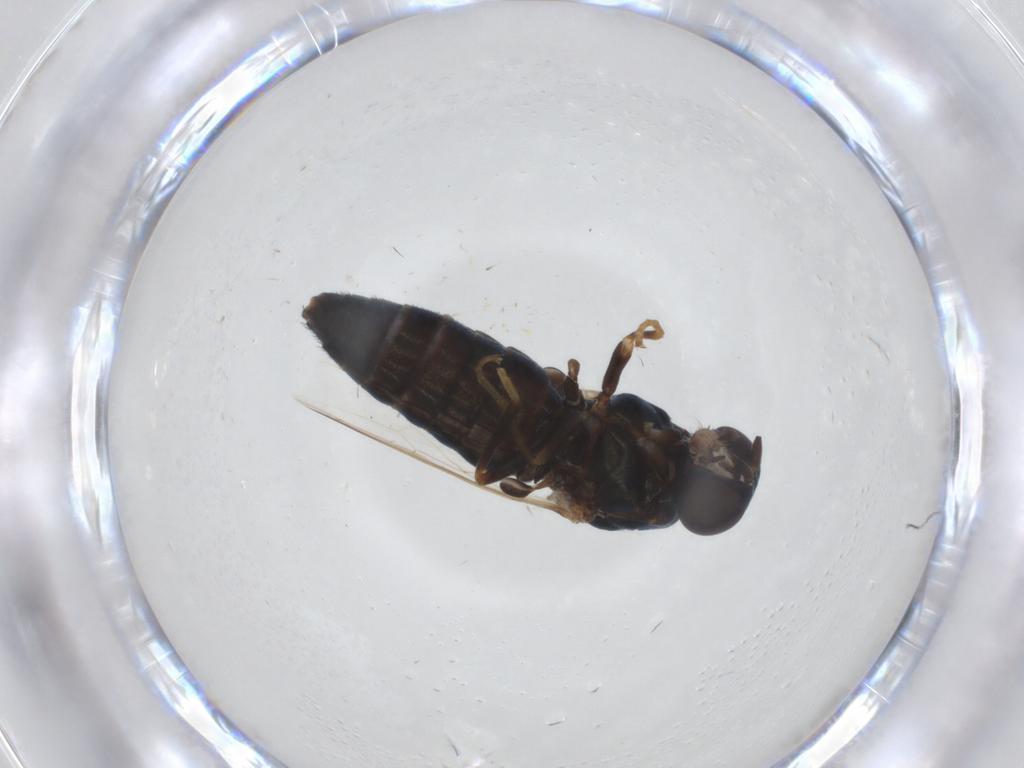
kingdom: Animalia
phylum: Arthropoda
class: Insecta
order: Diptera
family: Scenopinidae
